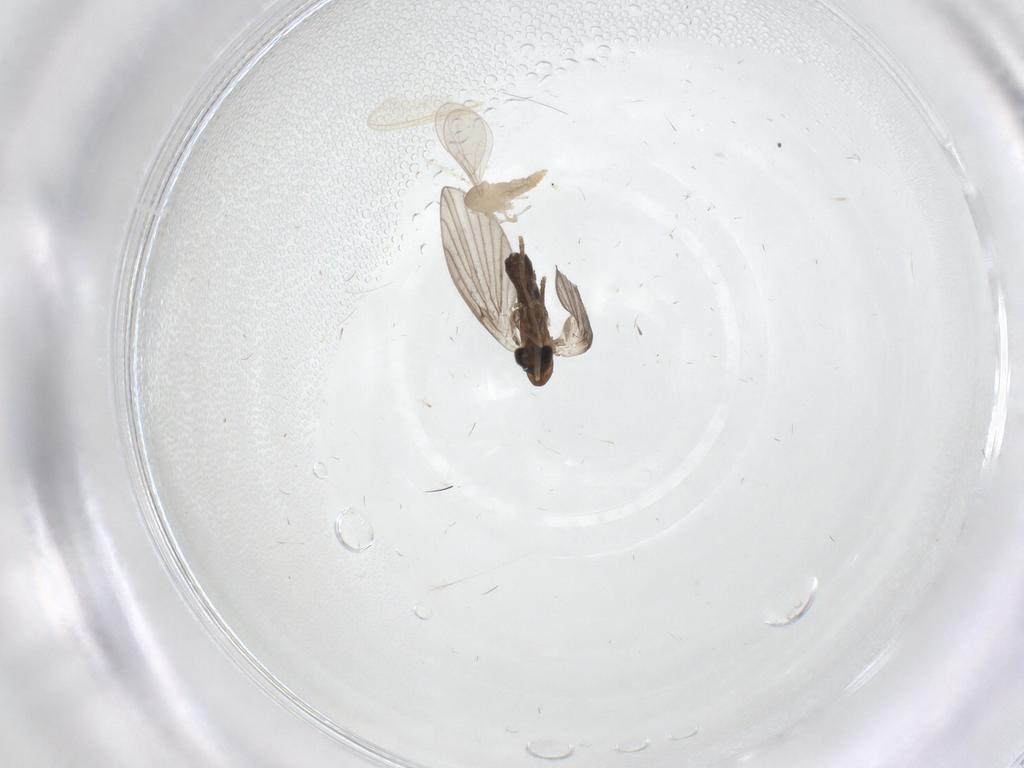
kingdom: Animalia
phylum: Arthropoda
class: Insecta
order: Diptera
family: Psychodidae
